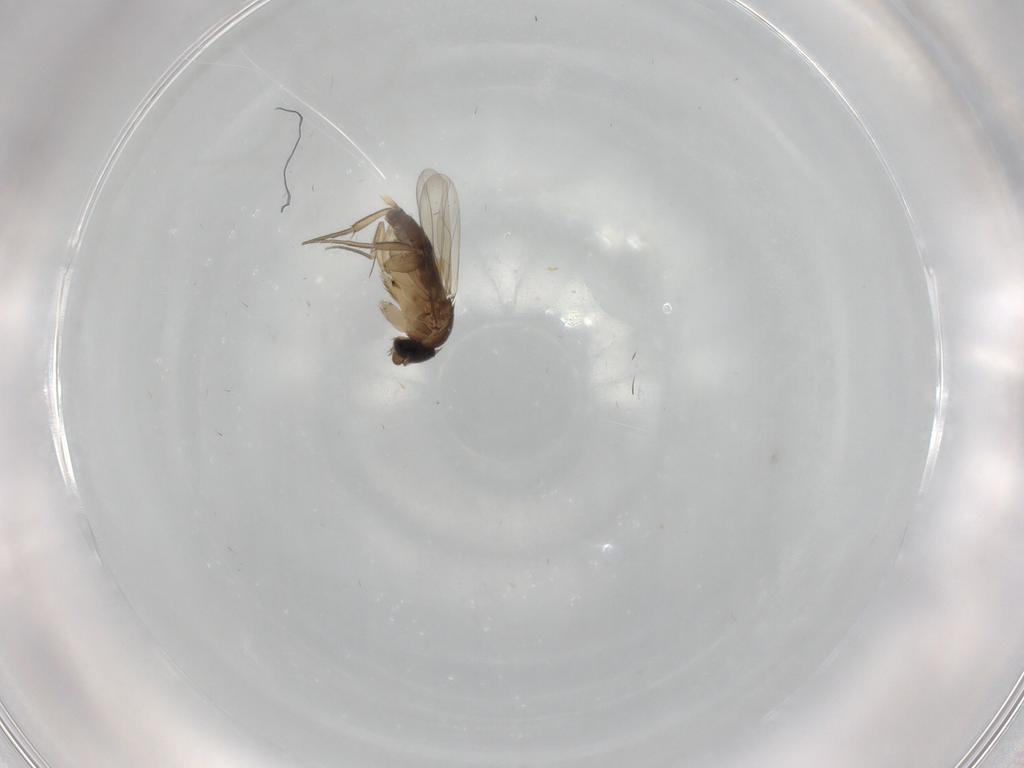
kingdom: Animalia
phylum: Arthropoda
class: Insecta
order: Diptera
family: Phoridae
